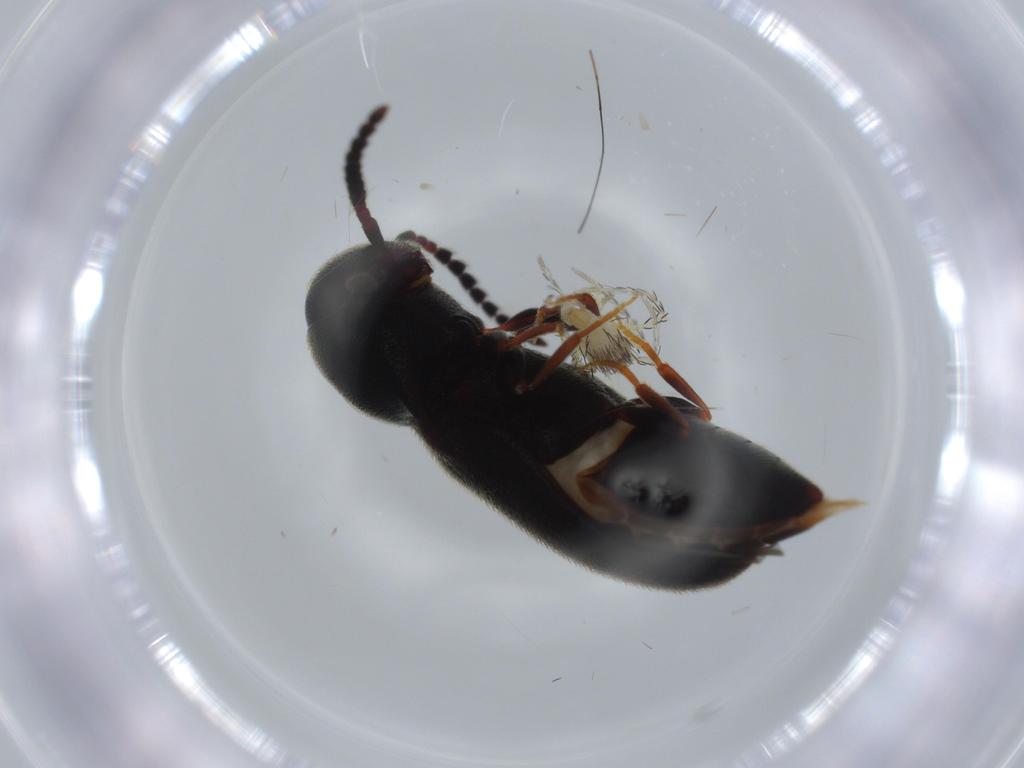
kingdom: Animalia
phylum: Arthropoda
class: Arachnida
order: Trombidiformes
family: Erythraeidae
